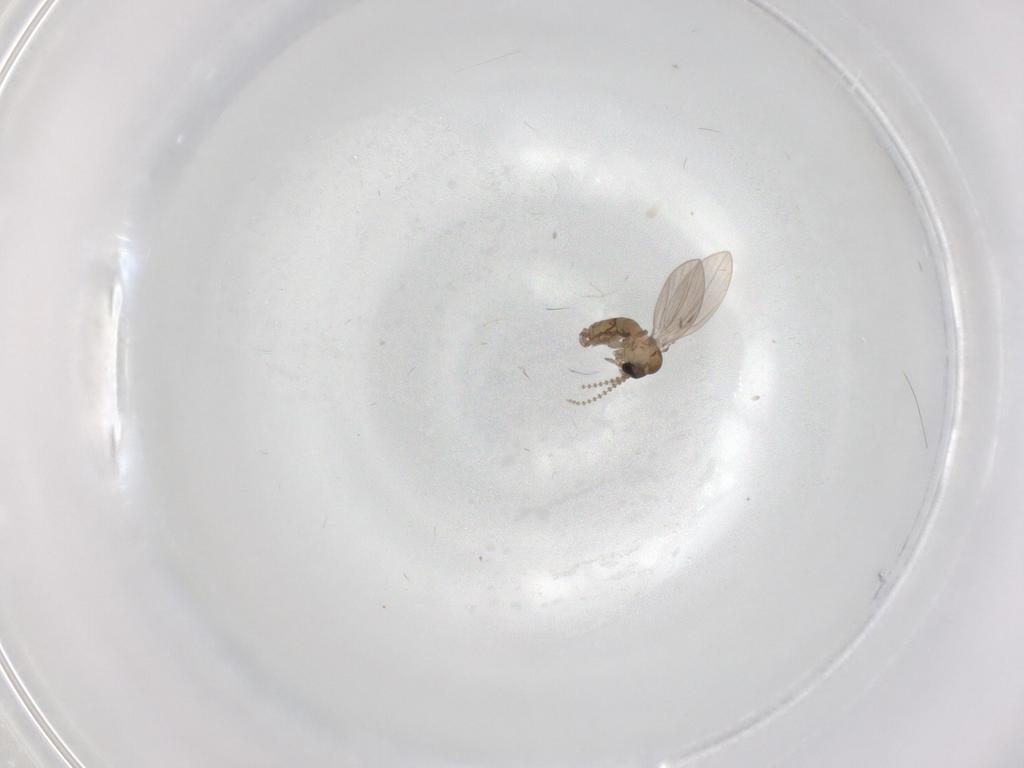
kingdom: Animalia
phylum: Arthropoda
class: Insecta
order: Diptera
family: Psychodidae
